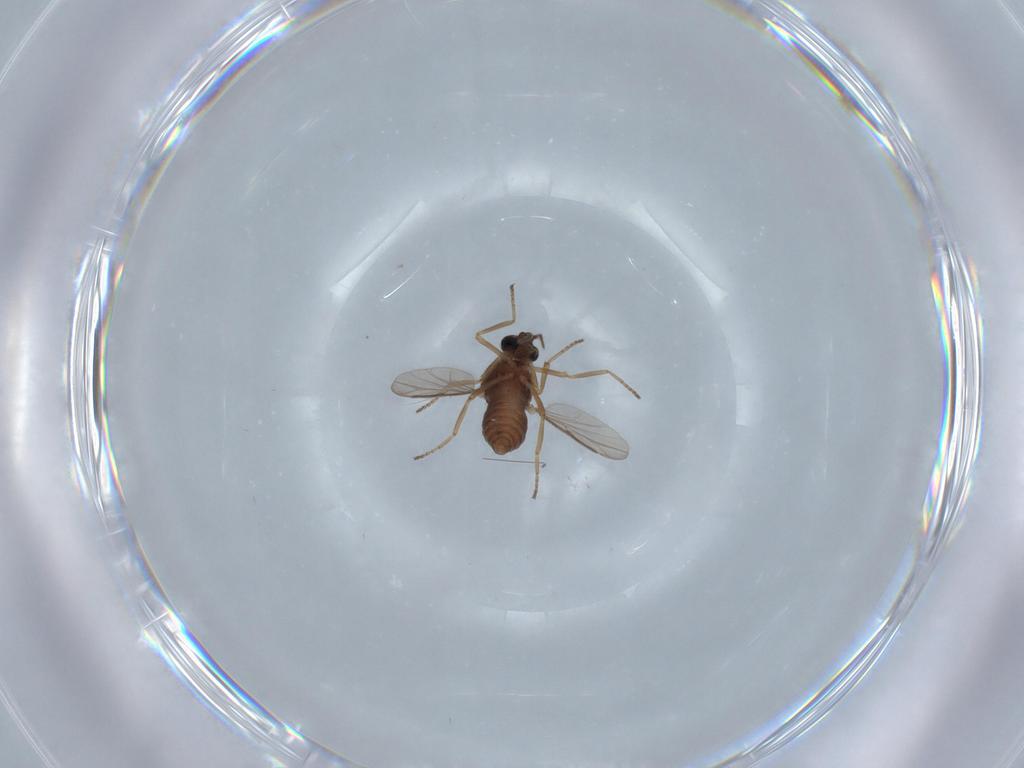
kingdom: Animalia
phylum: Arthropoda
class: Insecta
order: Diptera
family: Ceratopogonidae
